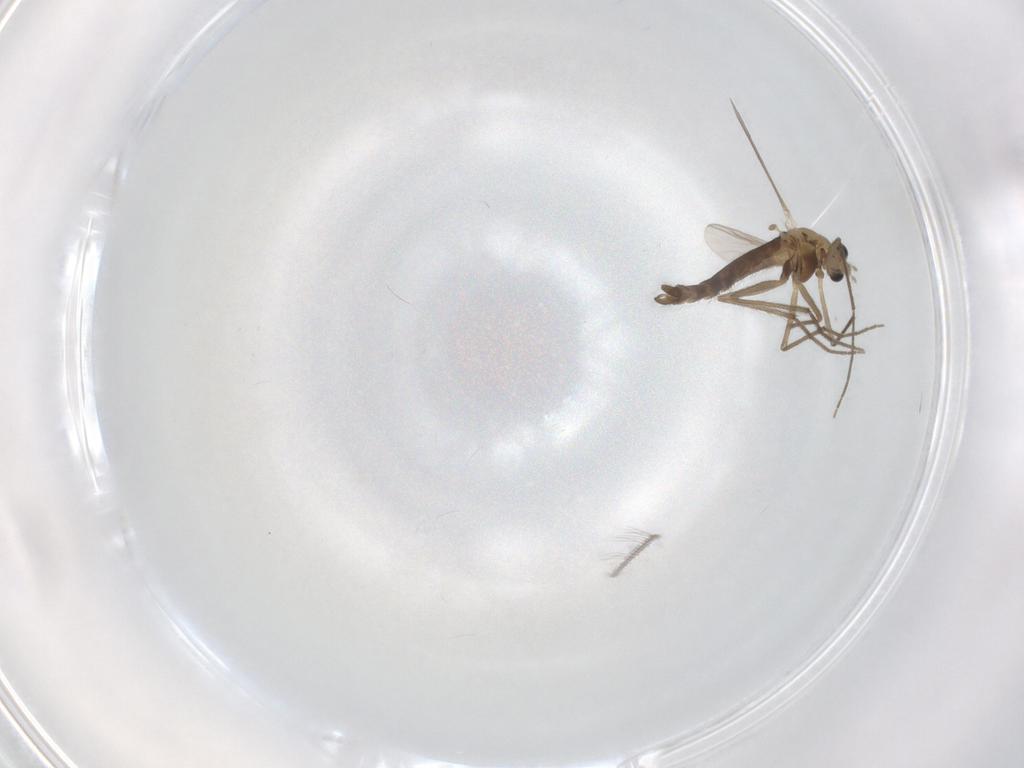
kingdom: Animalia
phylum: Arthropoda
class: Insecta
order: Diptera
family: Chironomidae
